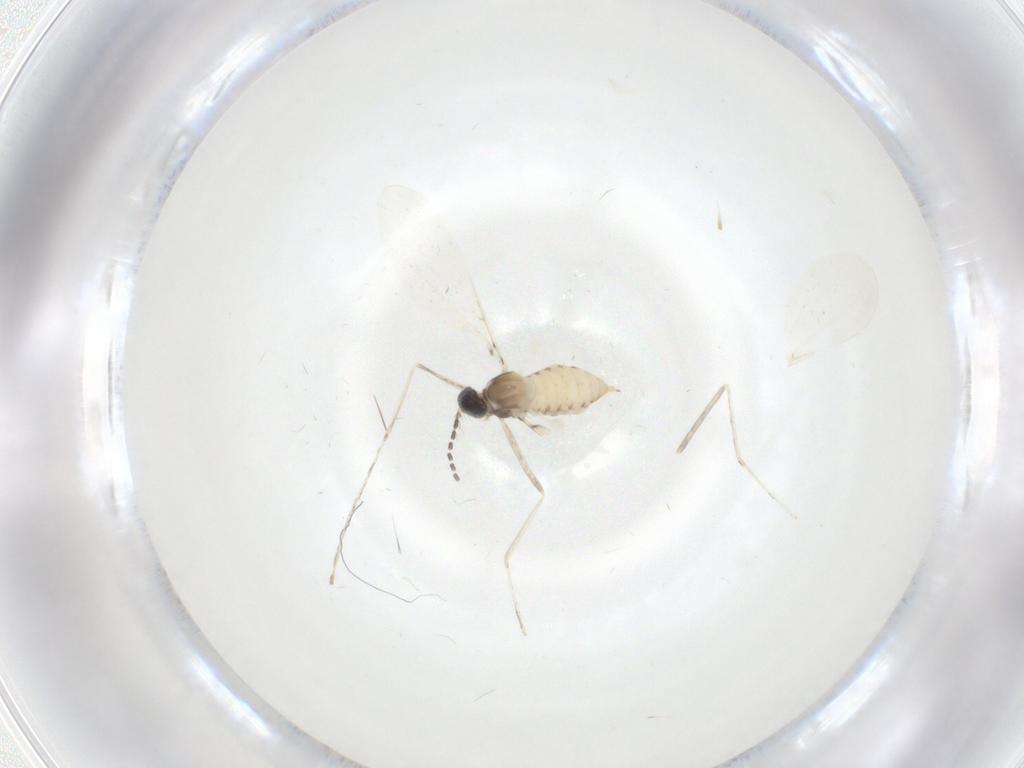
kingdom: Animalia
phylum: Arthropoda
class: Insecta
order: Diptera
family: Cecidomyiidae
